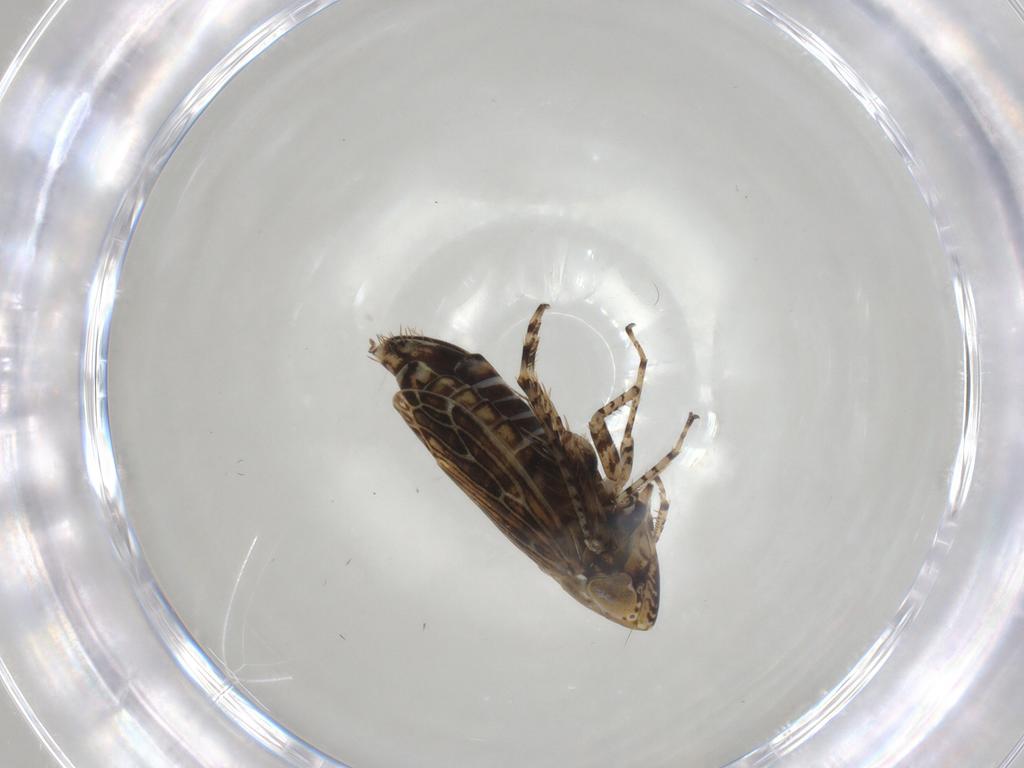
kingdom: Animalia
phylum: Arthropoda
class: Insecta
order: Hemiptera
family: Cicadellidae
